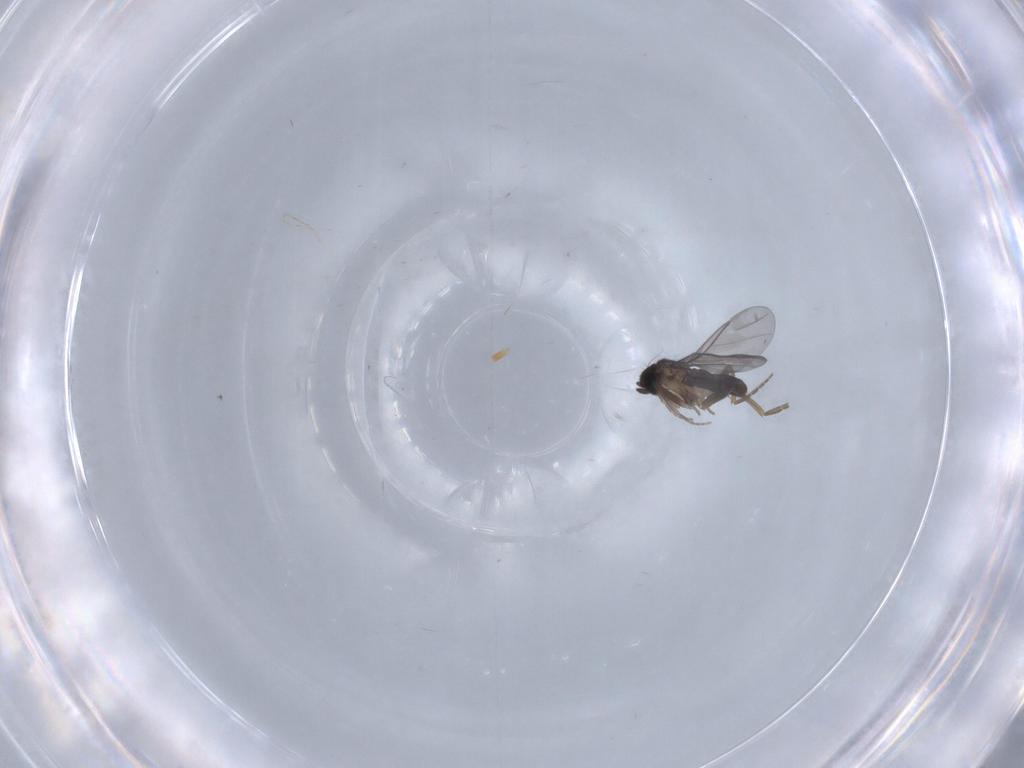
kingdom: Animalia
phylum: Arthropoda
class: Insecta
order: Diptera
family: Phoridae
